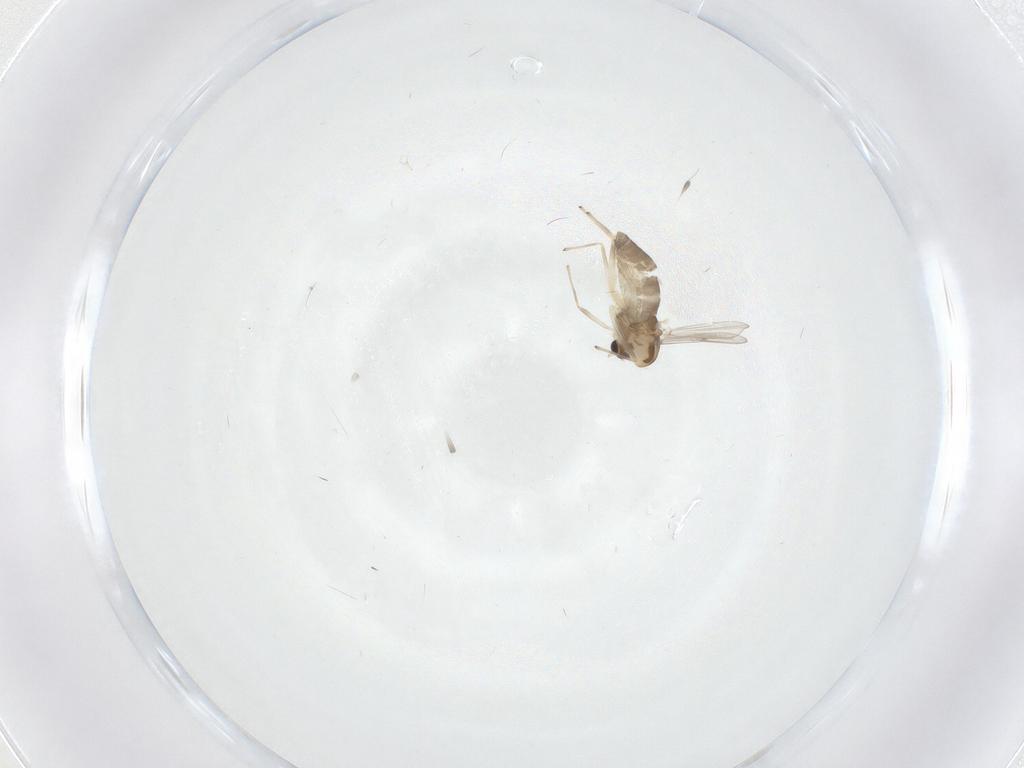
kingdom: Animalia
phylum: Arthropoda
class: Insecta
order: Diptera
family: Chironomidae
